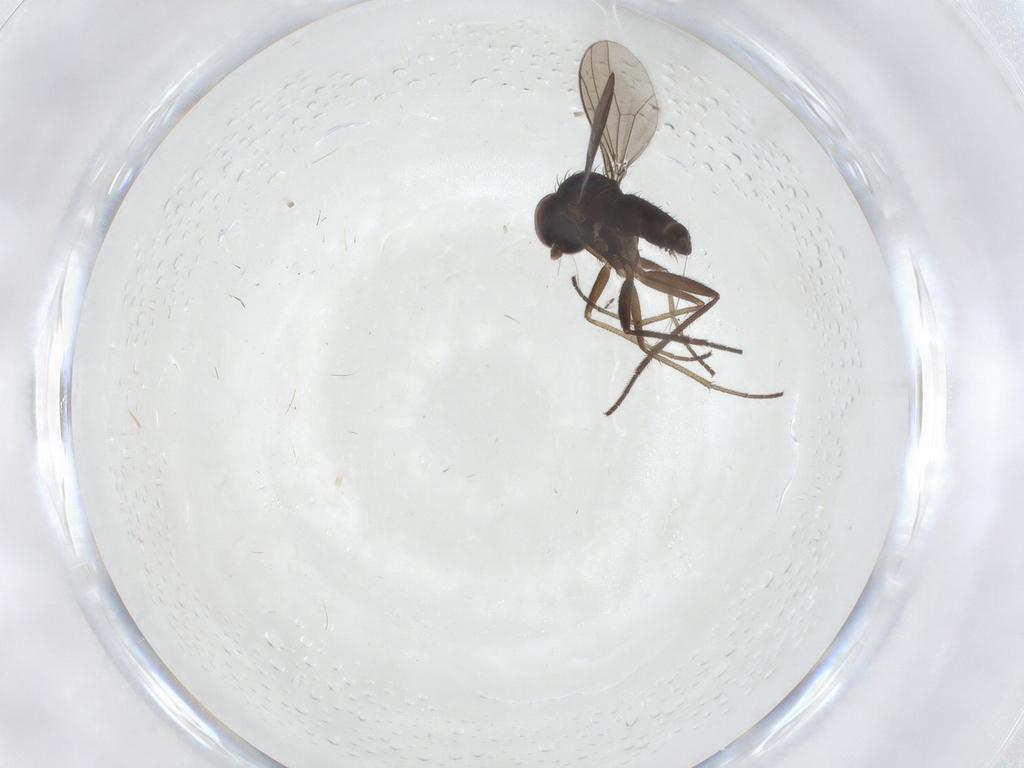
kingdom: Animalia
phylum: Arthropoda
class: Insecta
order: Diptera
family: Dolichopodidae
